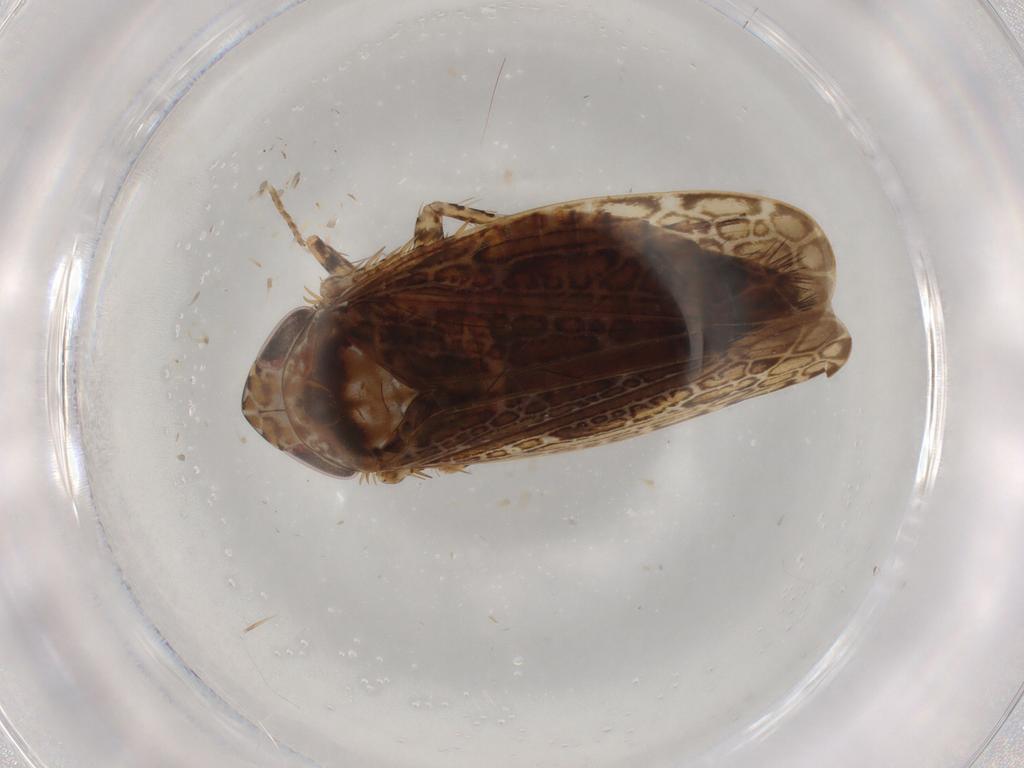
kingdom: Animalia
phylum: Arthropoda
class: Insecta
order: Hemiptera
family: Cicadellidae
